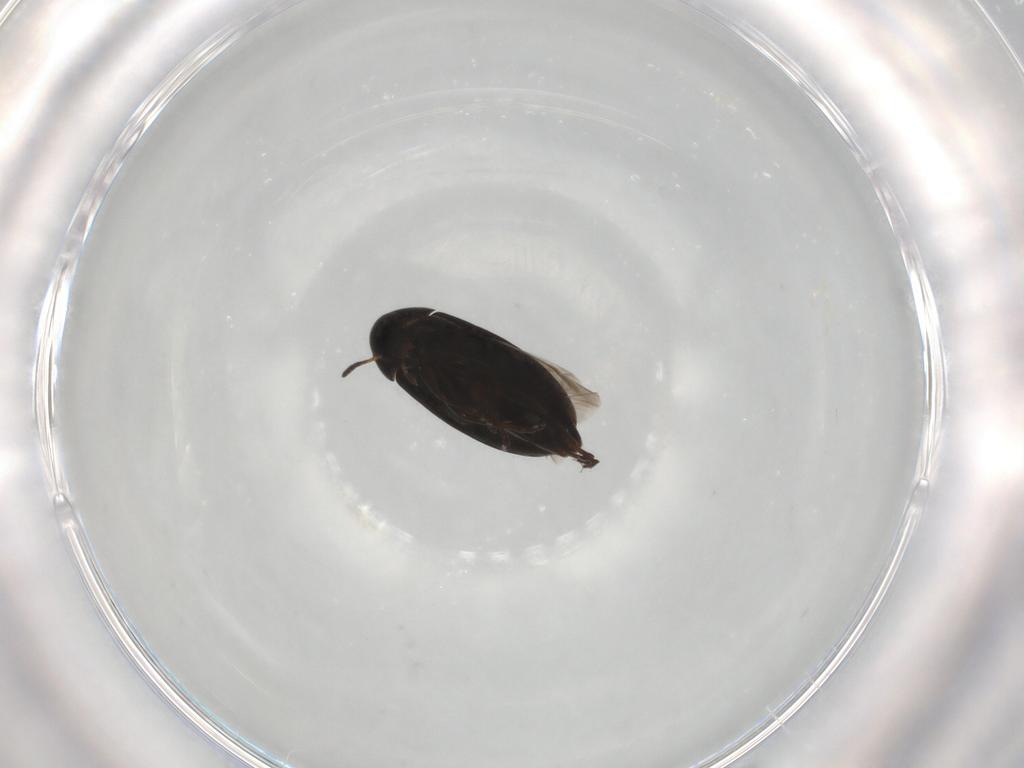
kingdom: Animalia
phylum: Arthropoda
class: Insecta
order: Coleoptera
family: Scraptiidae
